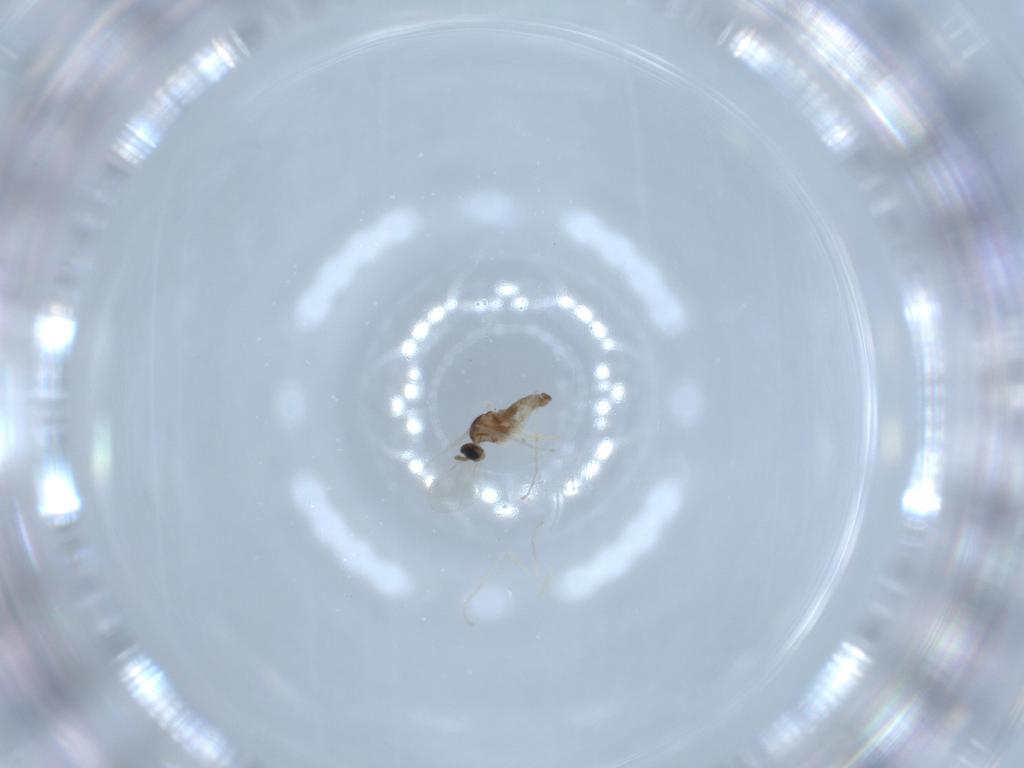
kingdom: Animalia
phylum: Arthropoda
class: Insecta
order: Diptera
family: Cecidomyiidae
